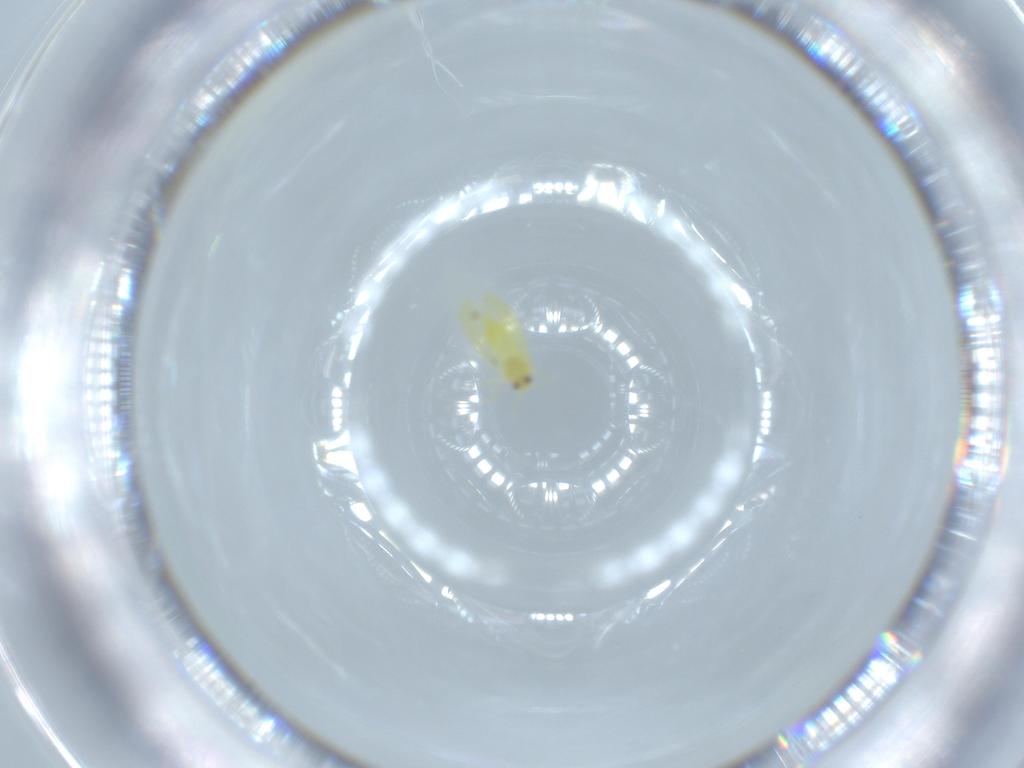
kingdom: Animalia
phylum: Arthropoda
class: Insecta
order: Hemiptera
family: Aleyrodidae
